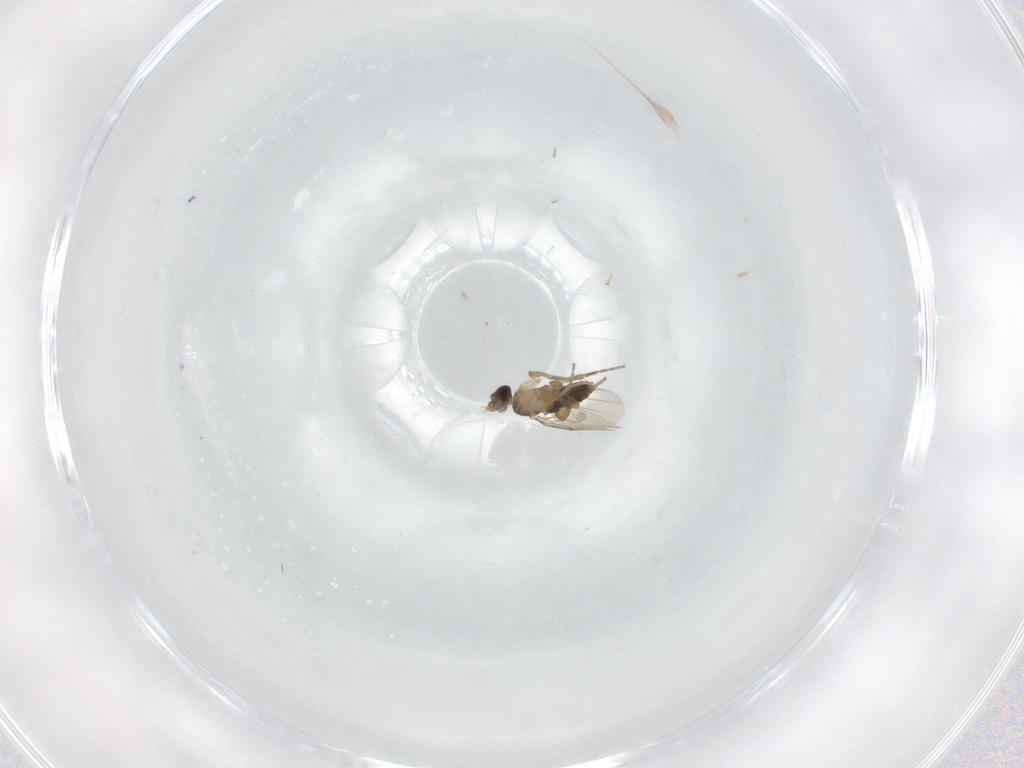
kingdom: Animalia
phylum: Arthropoda
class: Insecta
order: Diptera
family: Phoridae
